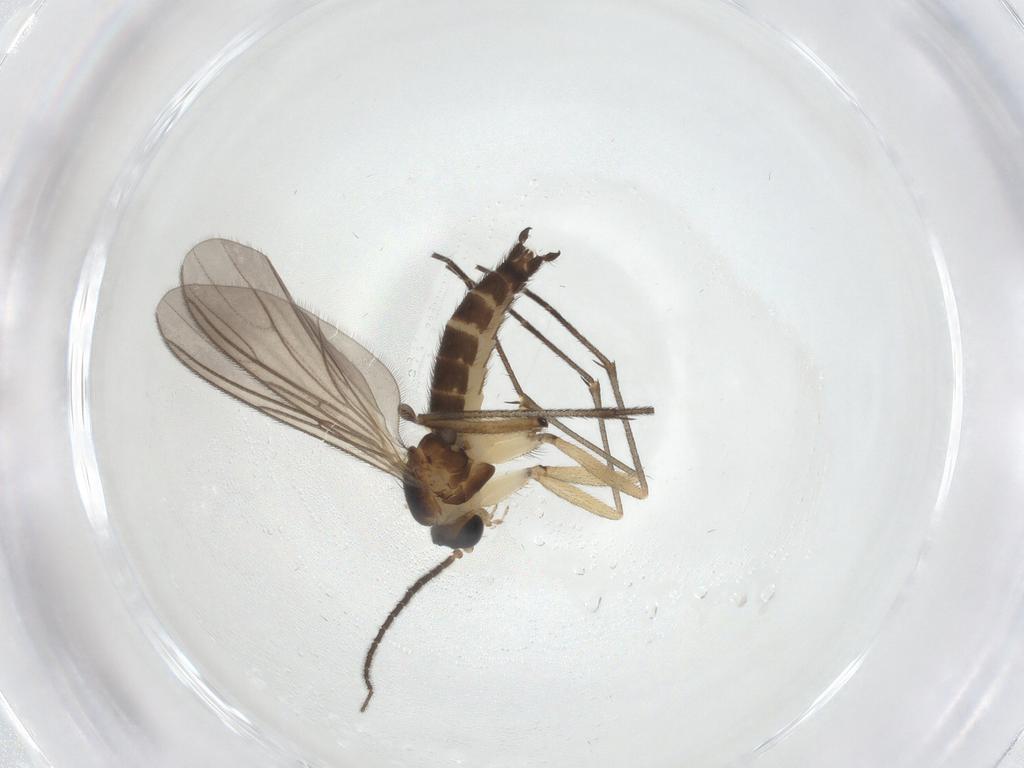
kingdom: Animalia
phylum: Arthropoda
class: Insecta
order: Diptera
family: Sciaridae
